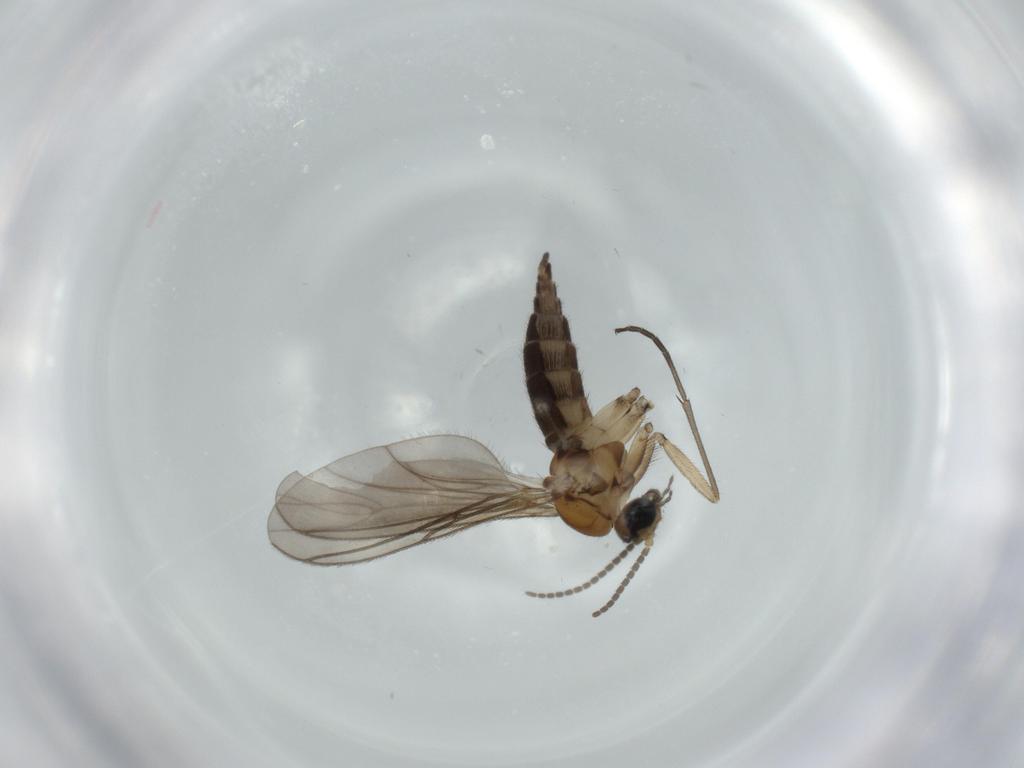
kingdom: Animalia
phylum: Arthropoda
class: Insecta
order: Diptera
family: Sciaridae
